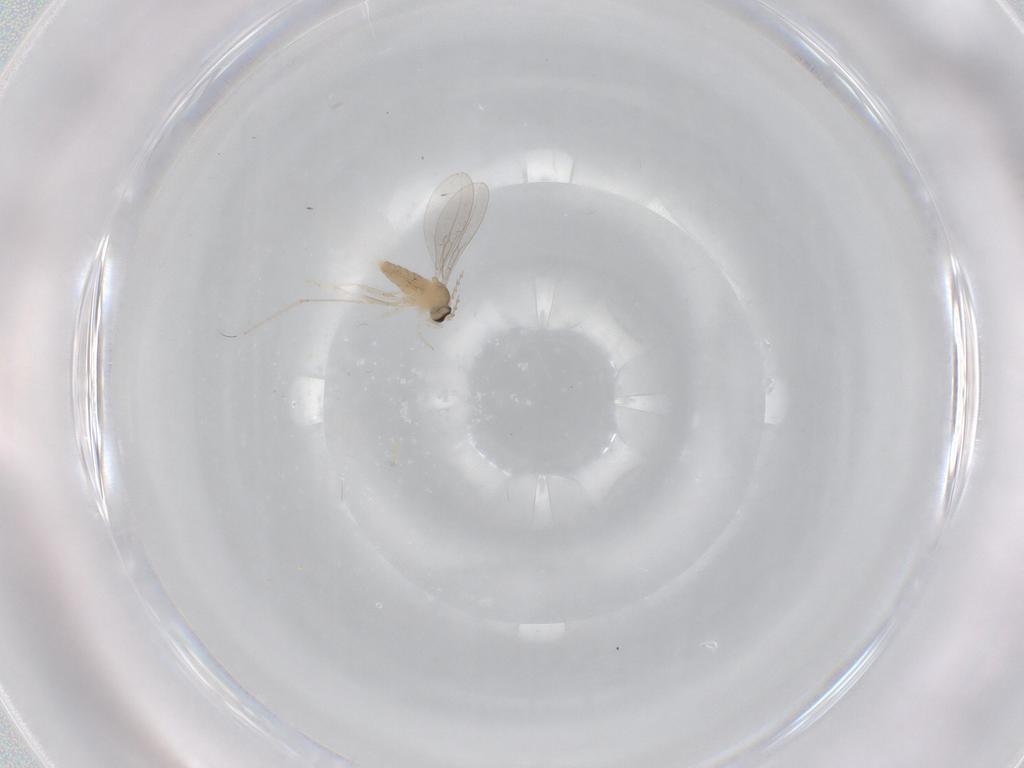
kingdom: Animalia
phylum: Arthropoda
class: Insecta
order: Diptera
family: Cecidomyiidae
